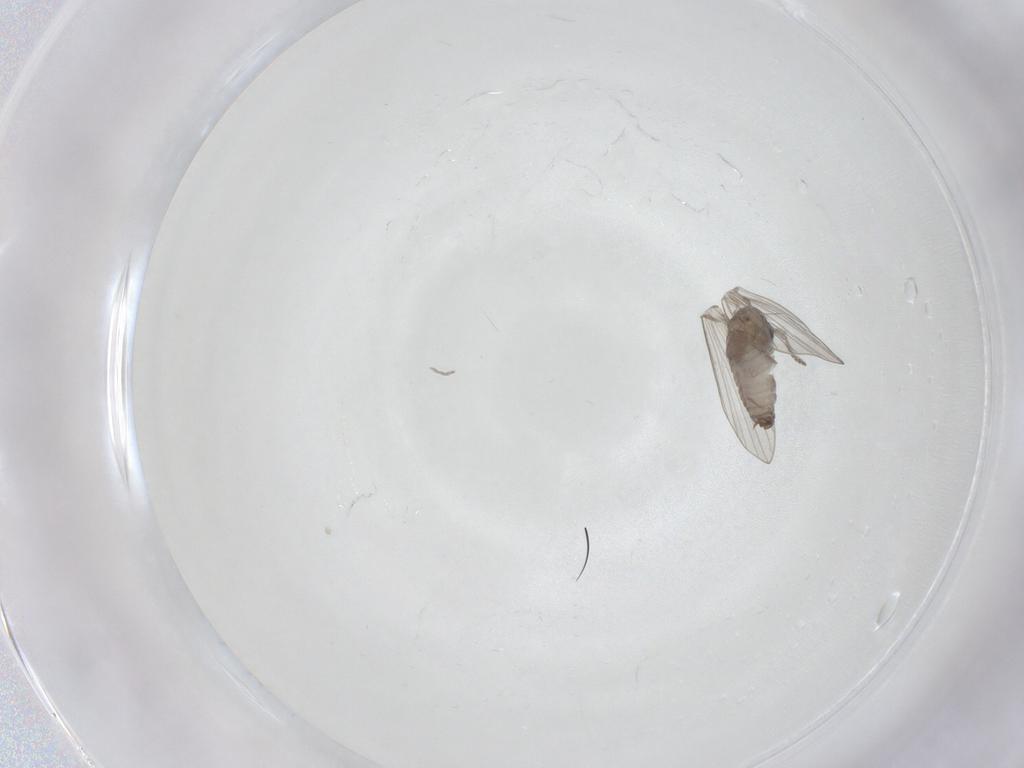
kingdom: Animalia
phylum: Arthropoda
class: Insecta
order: Diptera
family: Psychodidae
